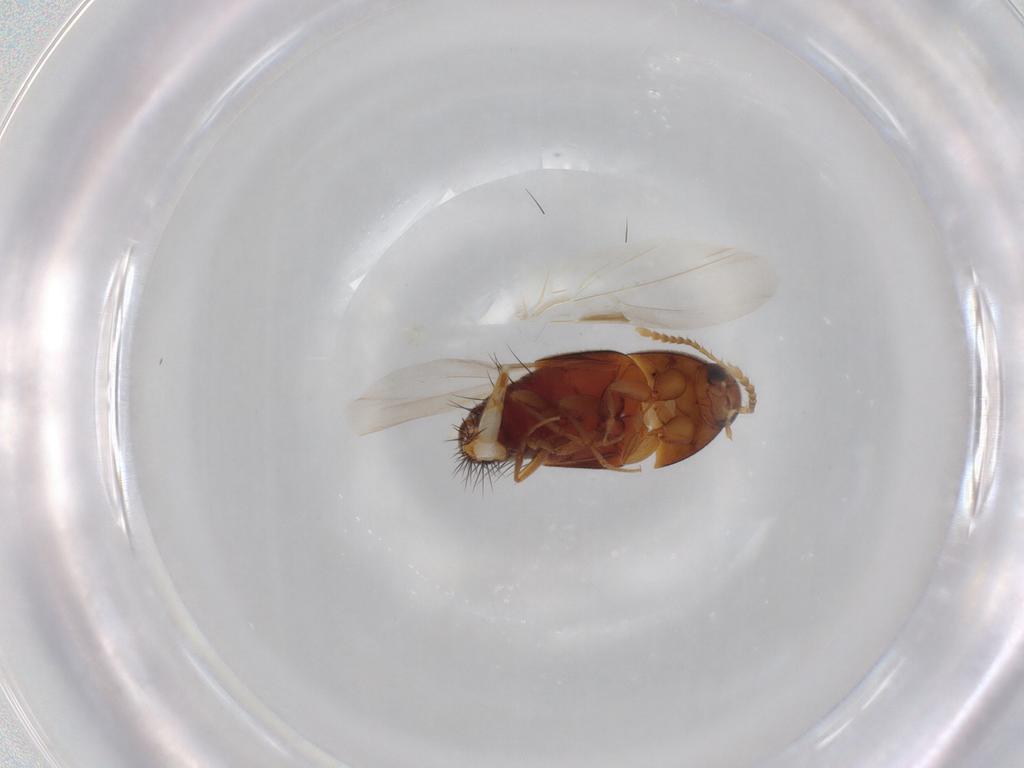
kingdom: Animalia
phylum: Arthropoda
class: Insecta
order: Coleoptera
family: Staphylinidae
